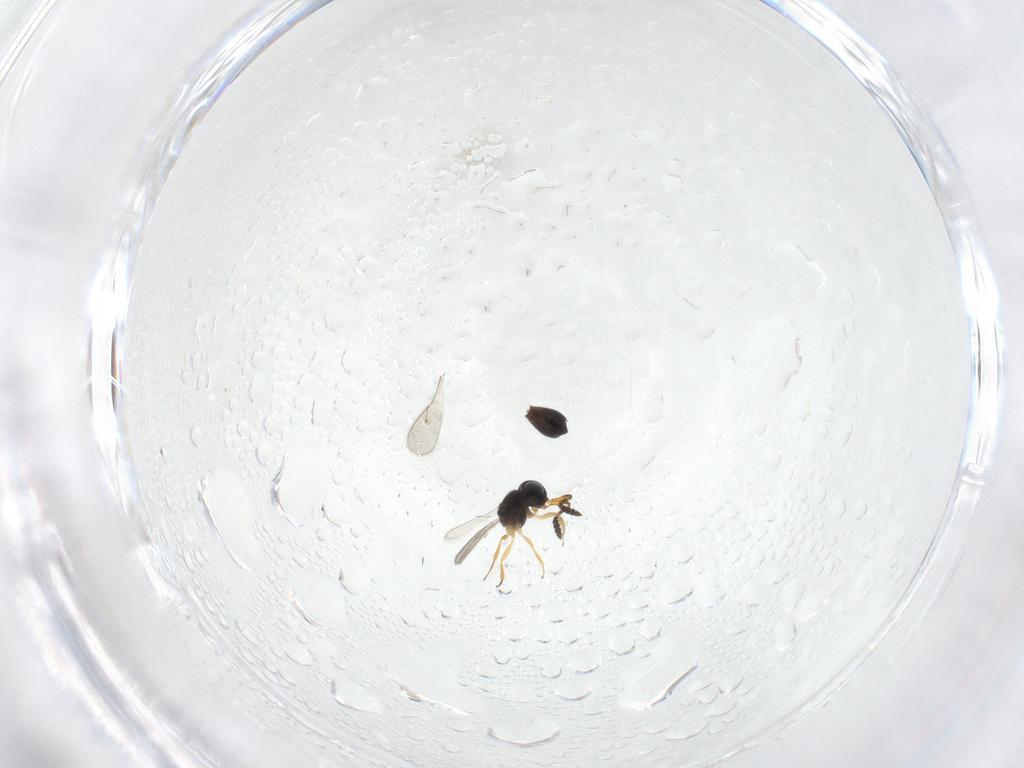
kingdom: Animalia
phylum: Arthropoda
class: Insecta
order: Hymenoptera
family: Scelionidae
